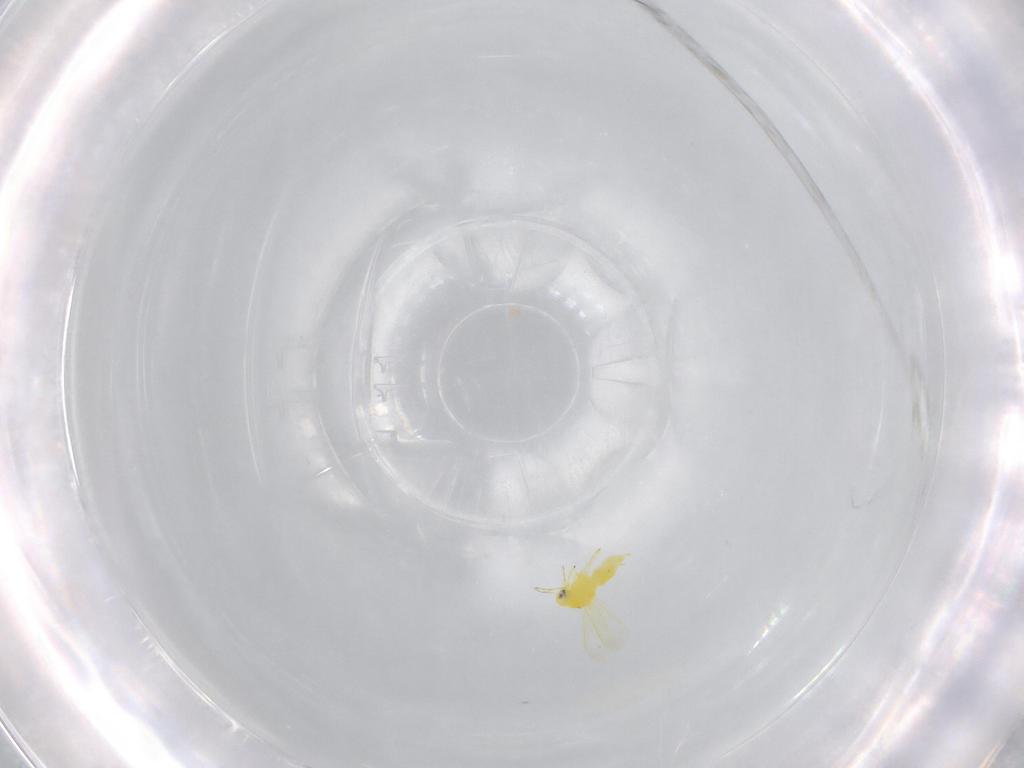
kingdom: Animalia
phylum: Arthropoda
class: Insecta
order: Hemiptera
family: Aleyrodidae
